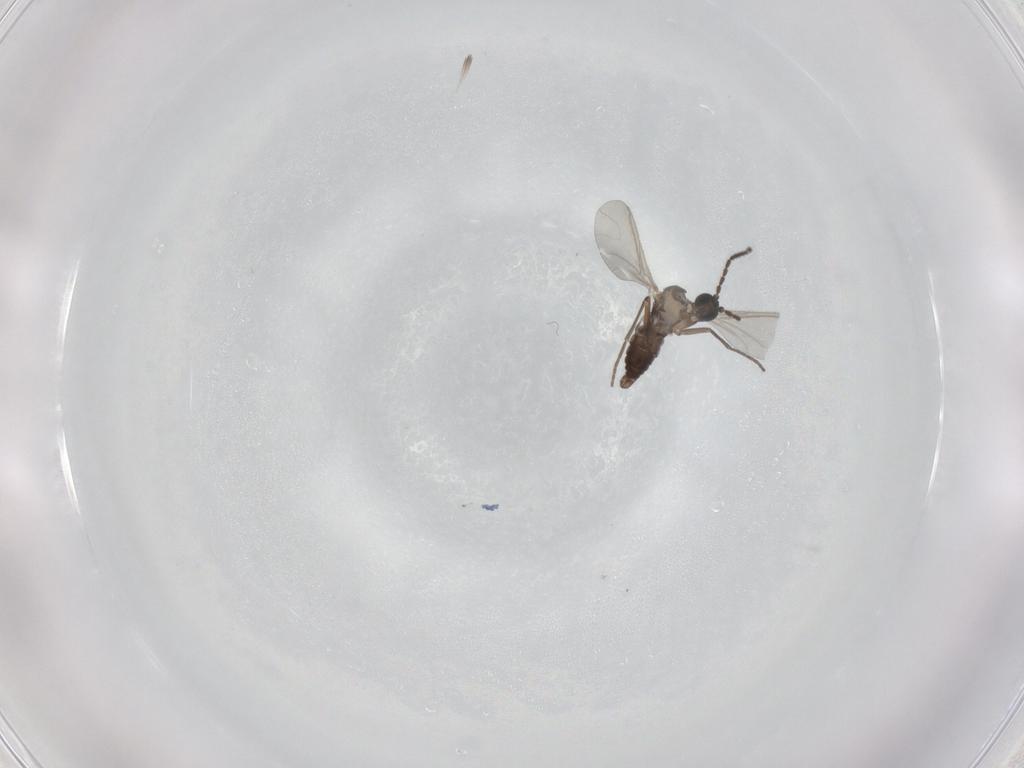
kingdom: Animalia
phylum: Arthropoda
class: Insecta
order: Diptera
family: Sciaridae
